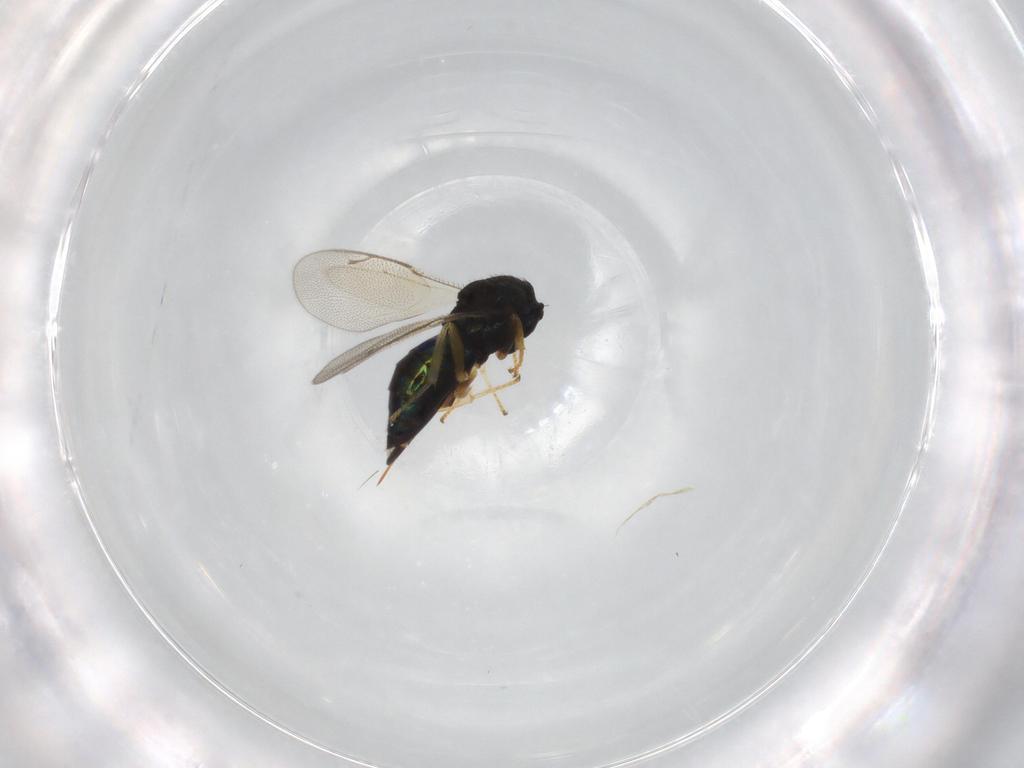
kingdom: Animalia
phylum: Arthropoda
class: Insecta
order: Hymenoptera
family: Pteromalidae
